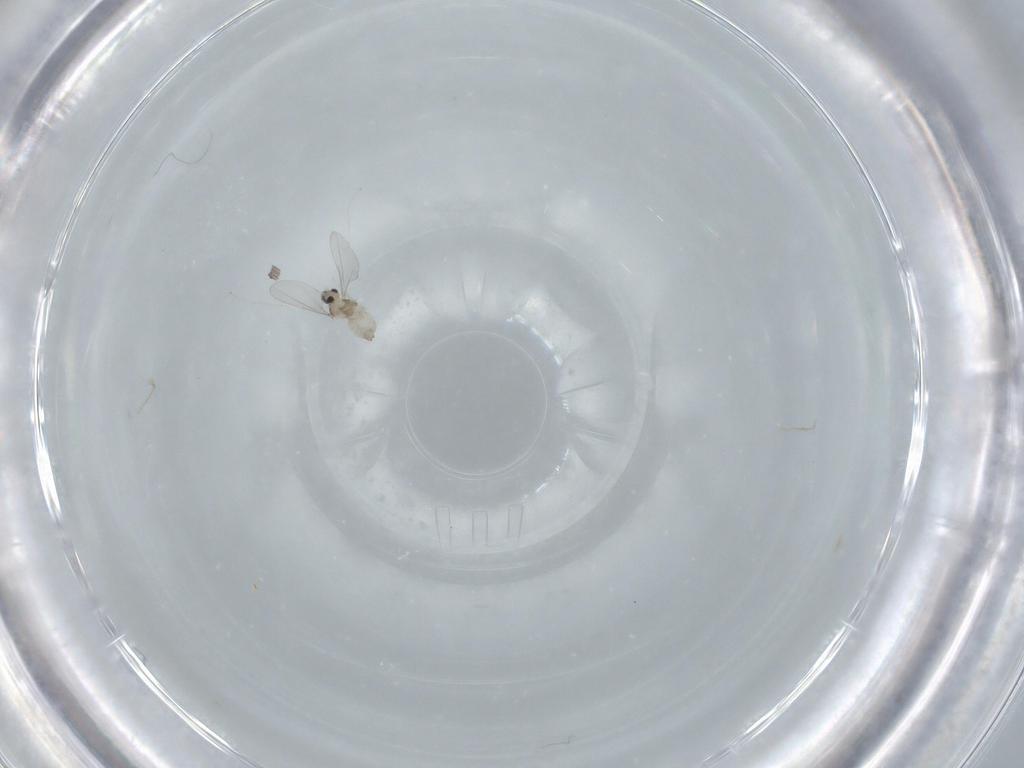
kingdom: Animalia
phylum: Arthropoda
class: Insecta
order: Diptera
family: Cecidomyiidae
